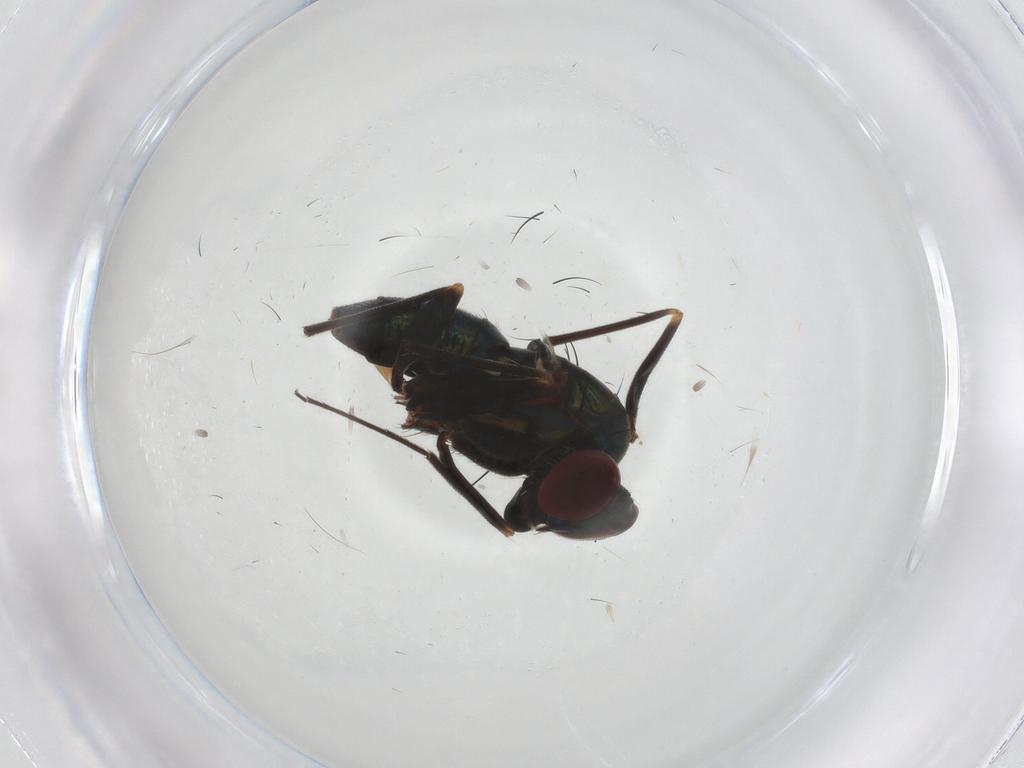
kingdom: Animalia
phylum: Arthropoda
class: Insecta
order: Diptera
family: Dolichopodidae
